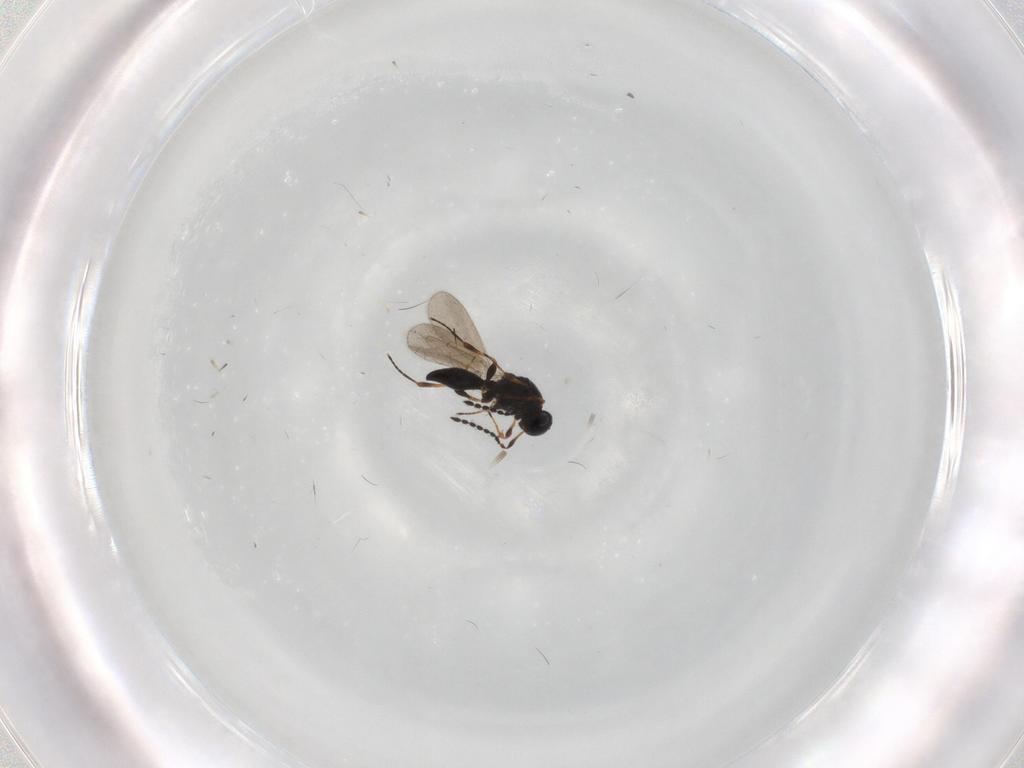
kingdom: Animalia
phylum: Arthropoda
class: Insecta
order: Hymenoptera
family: Platygastridae
